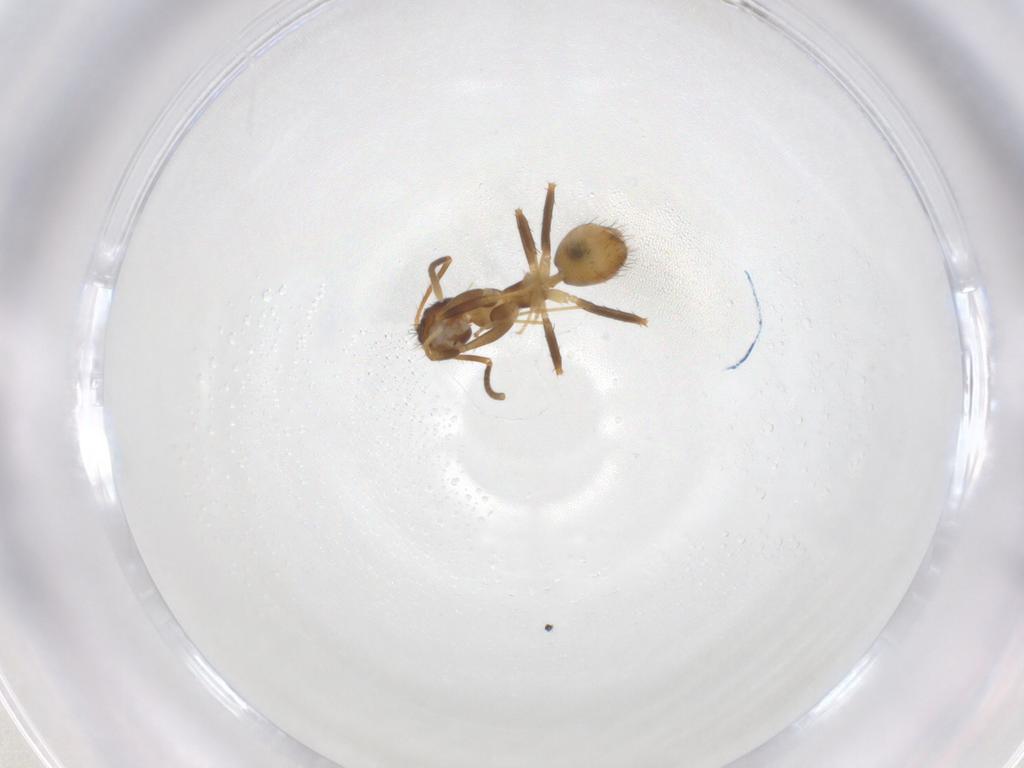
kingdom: Animalia
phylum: Arthropoda
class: Insecta
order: Hymenoptera
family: Formicidae
